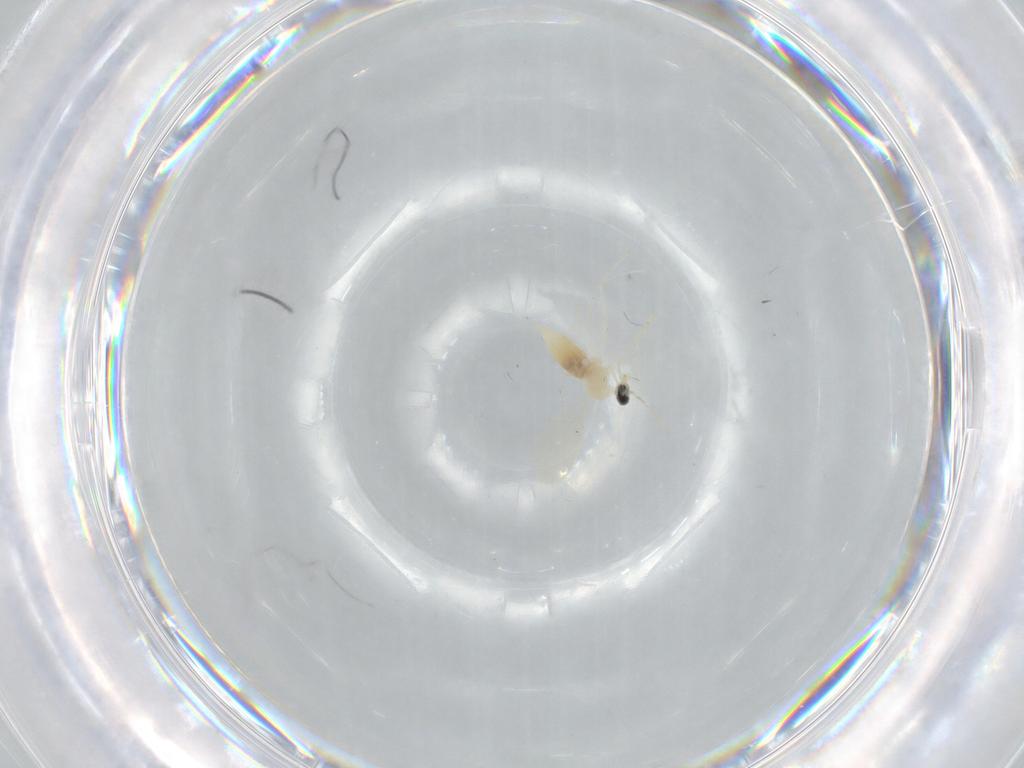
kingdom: Animalia
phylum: Arthropoda
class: Insecta
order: Diptera
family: Cecidomyiidae
